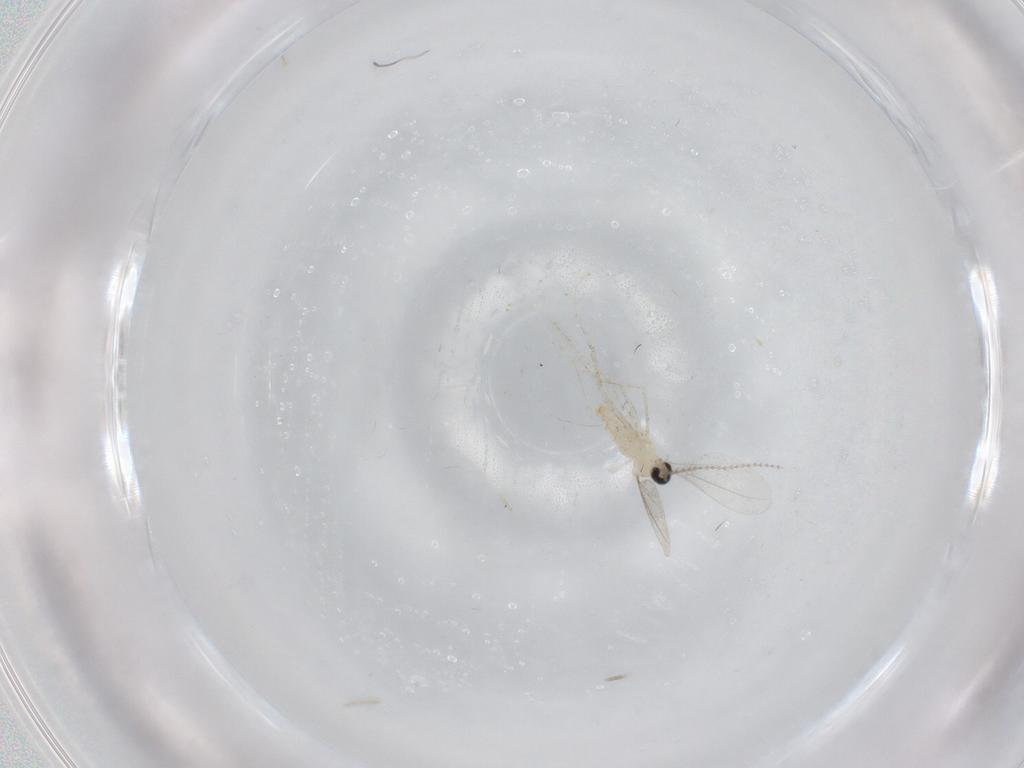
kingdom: Animalia
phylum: Arthropoda
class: Insecta
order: Diptera
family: Cecidomyiidae
